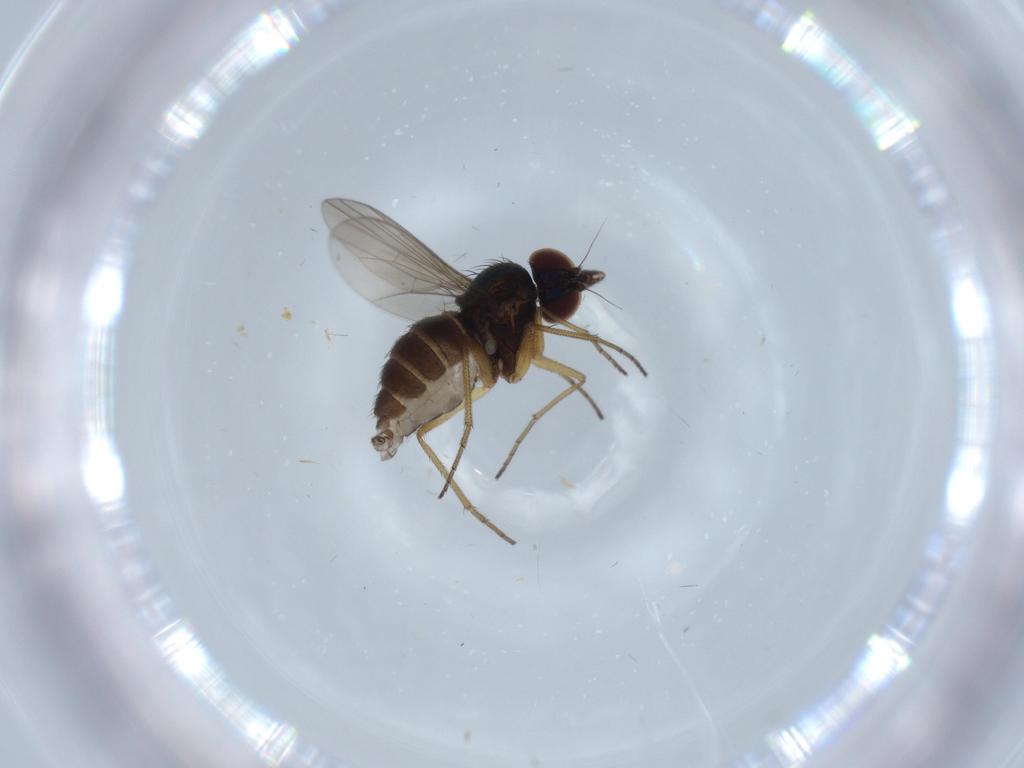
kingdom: Animalia
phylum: Arthropoda
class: Insecta
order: Diptera
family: Dolichopodidae
